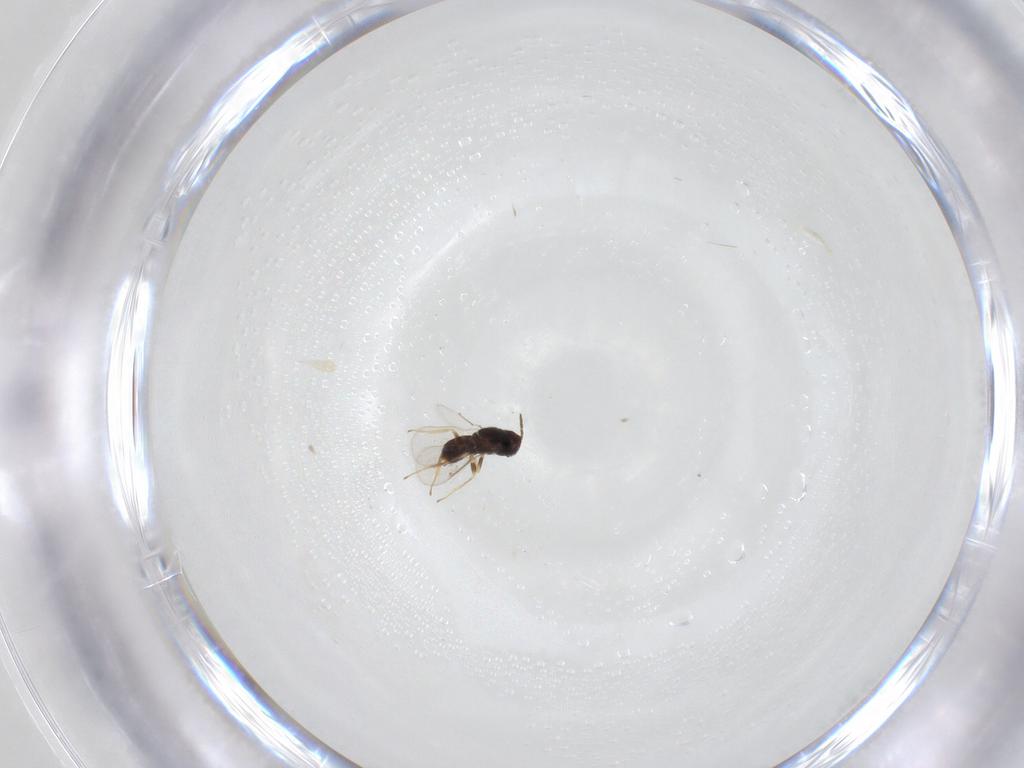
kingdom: Animalia
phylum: Arthropoda
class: Insecta
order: Hymenoptera
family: Aphelinidae
